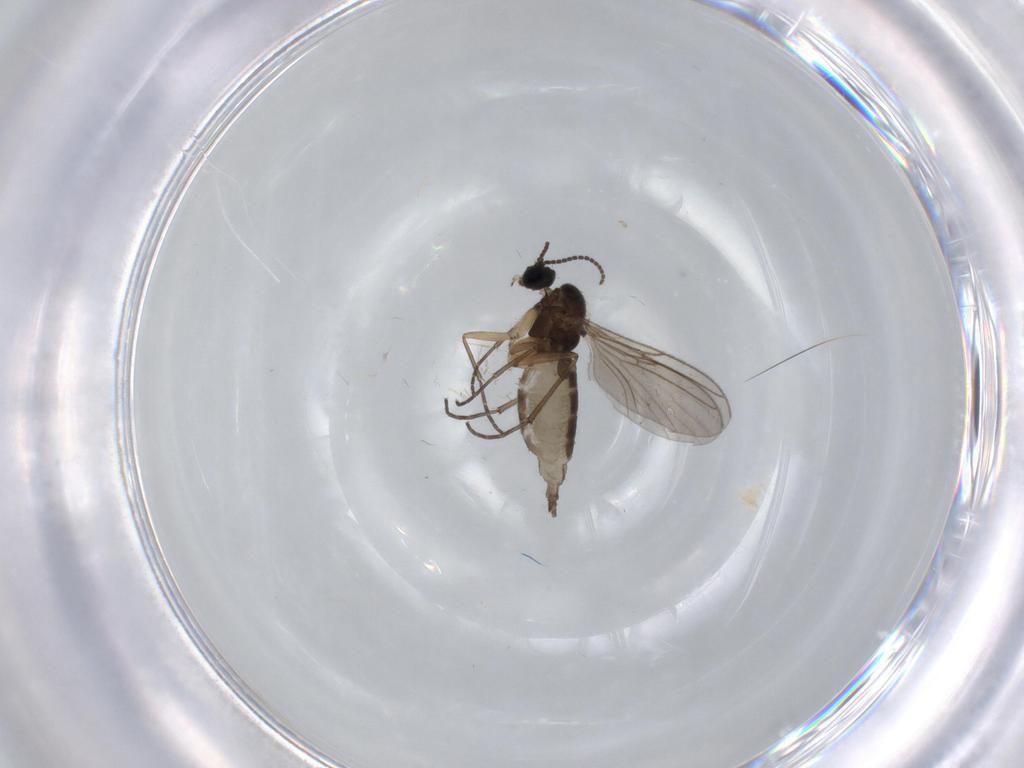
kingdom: Animalia
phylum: Arthropoda
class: Insecta
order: Diptera
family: Sciaridae
